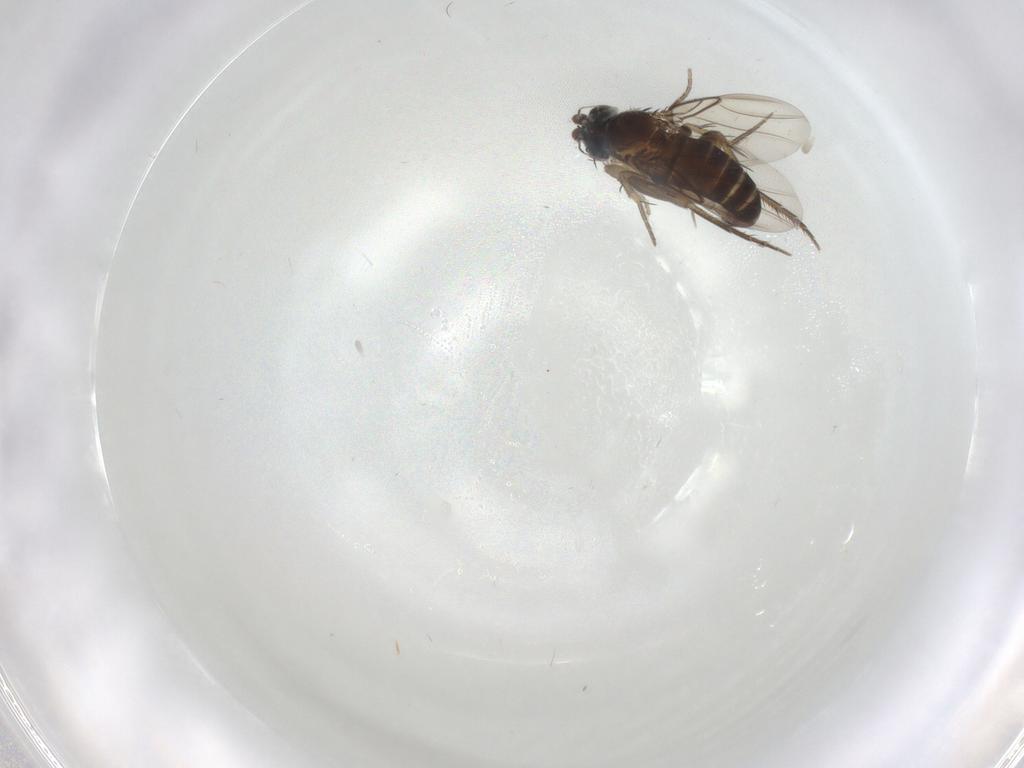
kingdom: Animalia
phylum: Arthropoda
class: Insecta
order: Diptera
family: Phoridae
